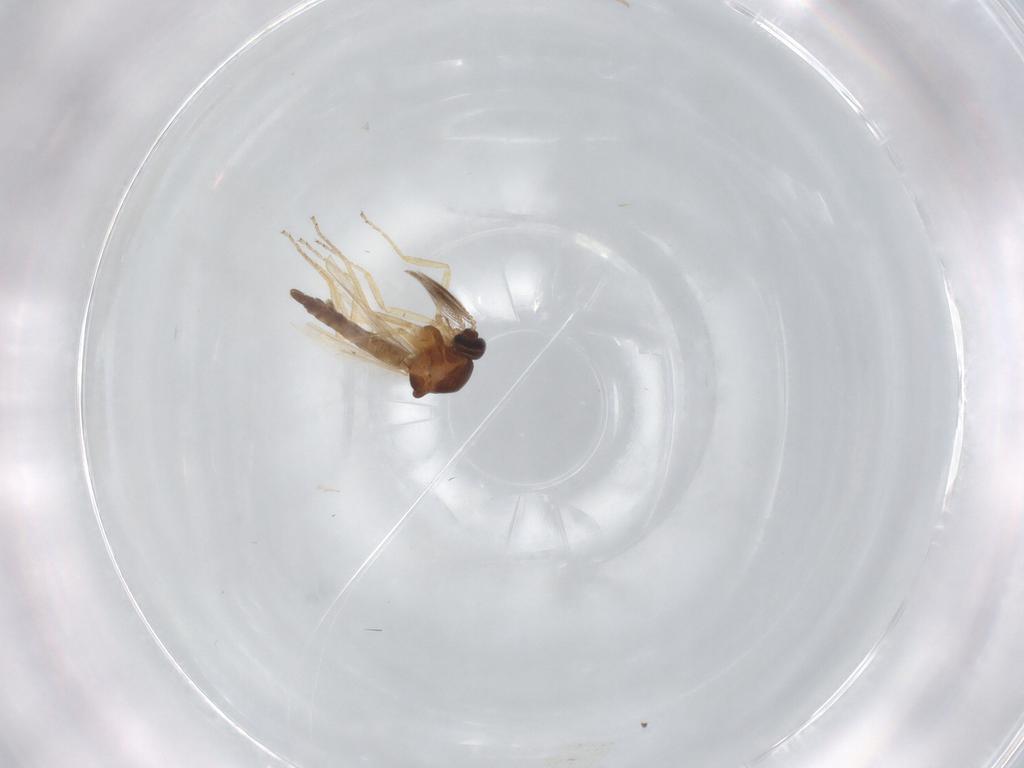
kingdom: Animalia
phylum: Arthropoda
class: Insecta
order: Diptera
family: Ceratopogonidae
